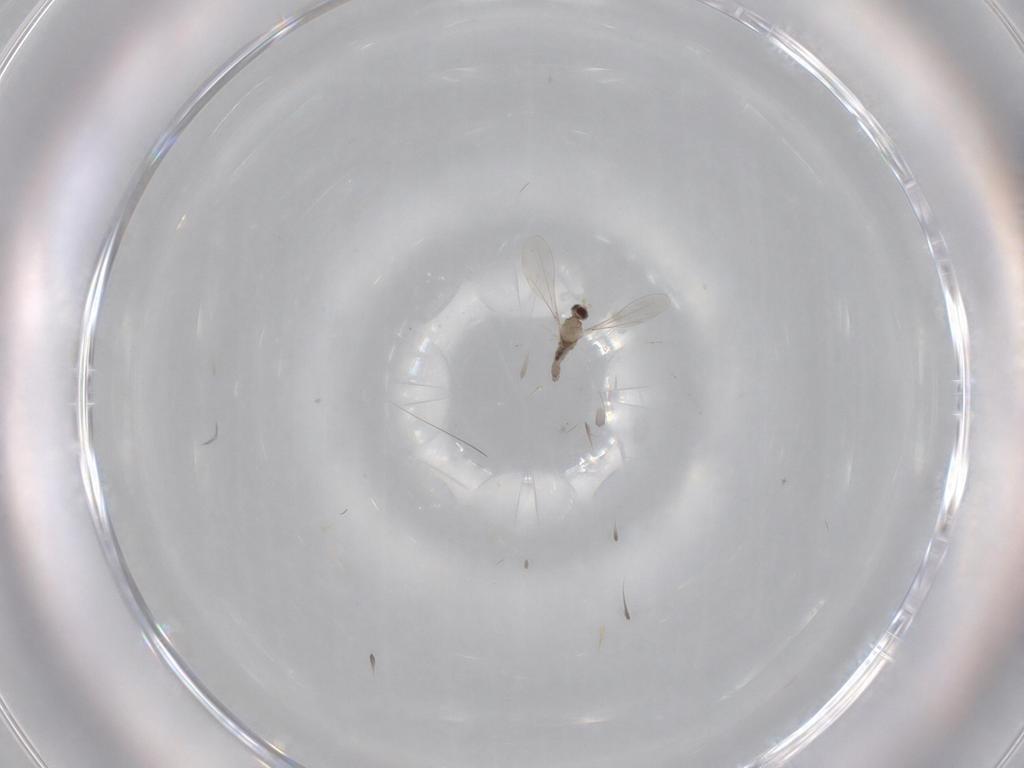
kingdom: Animalia
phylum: Arthropoda
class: Insecta
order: Diptera
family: Cecidomyiidae
